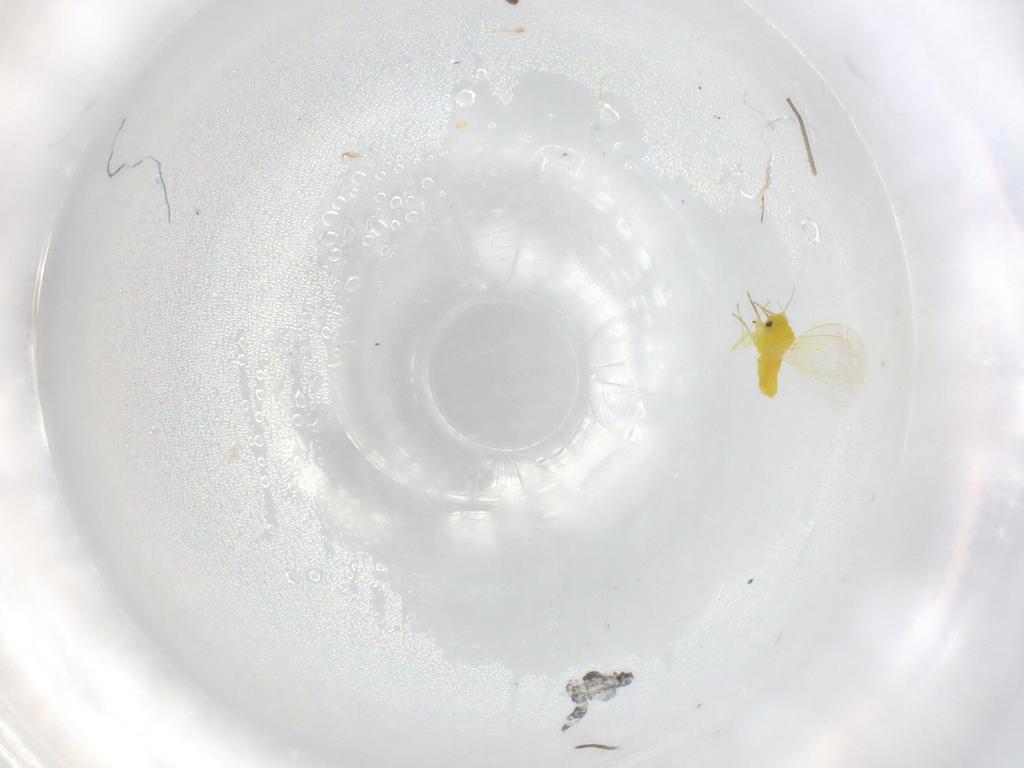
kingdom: Animalia
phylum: Arthropoda
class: Insecta
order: Hemiptera
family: Aleyrodidae
